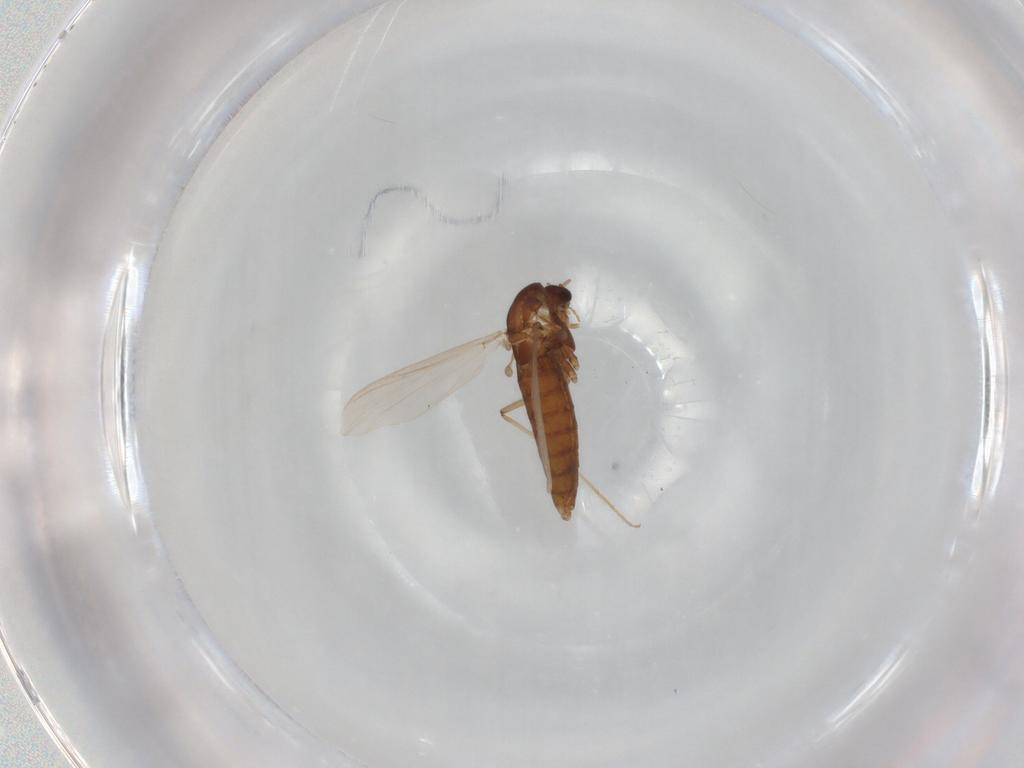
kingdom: Animalia
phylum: Arthropoda
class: Insecta
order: Diptera
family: Chironomidae
